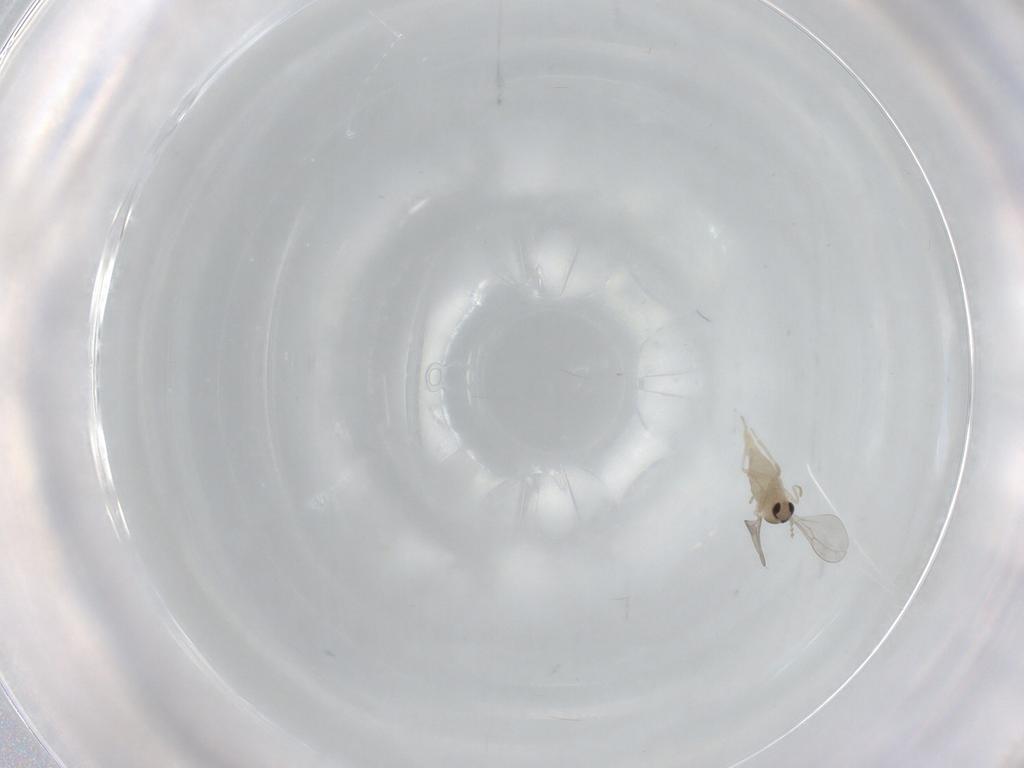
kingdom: Animalia
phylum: Arthropoda
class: Insecta
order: Diptera
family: Cecidomyiidae
